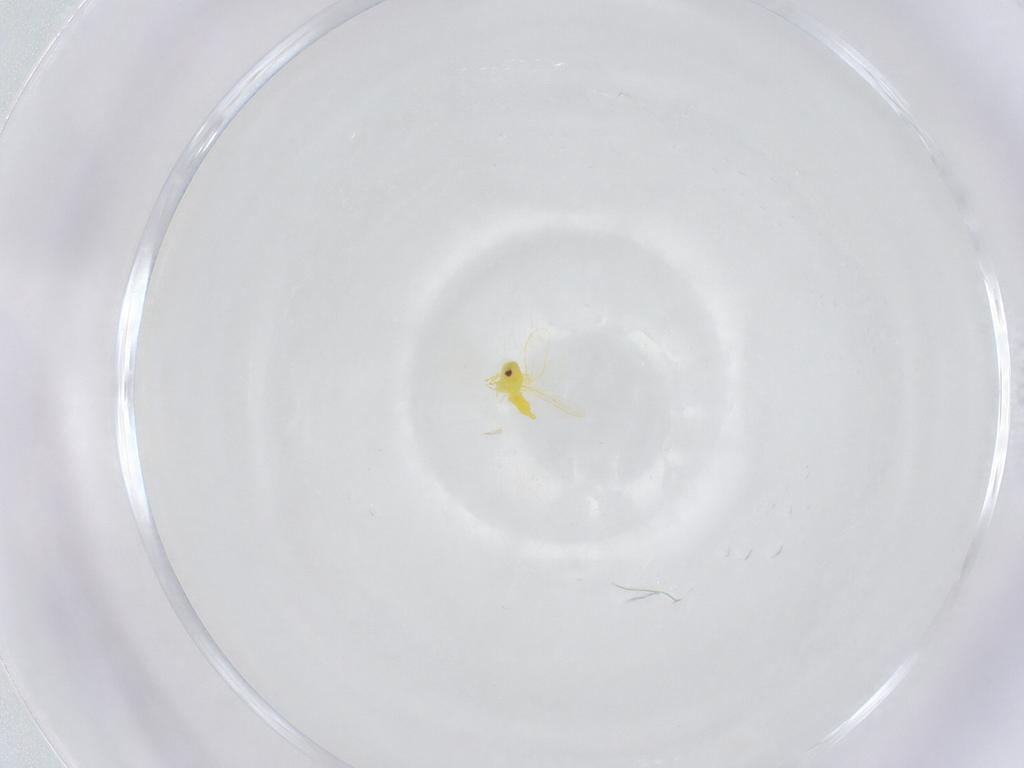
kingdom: Animalia
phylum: Arthropoda
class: Insecta
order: Hemiptera
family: Aleyrodidae
